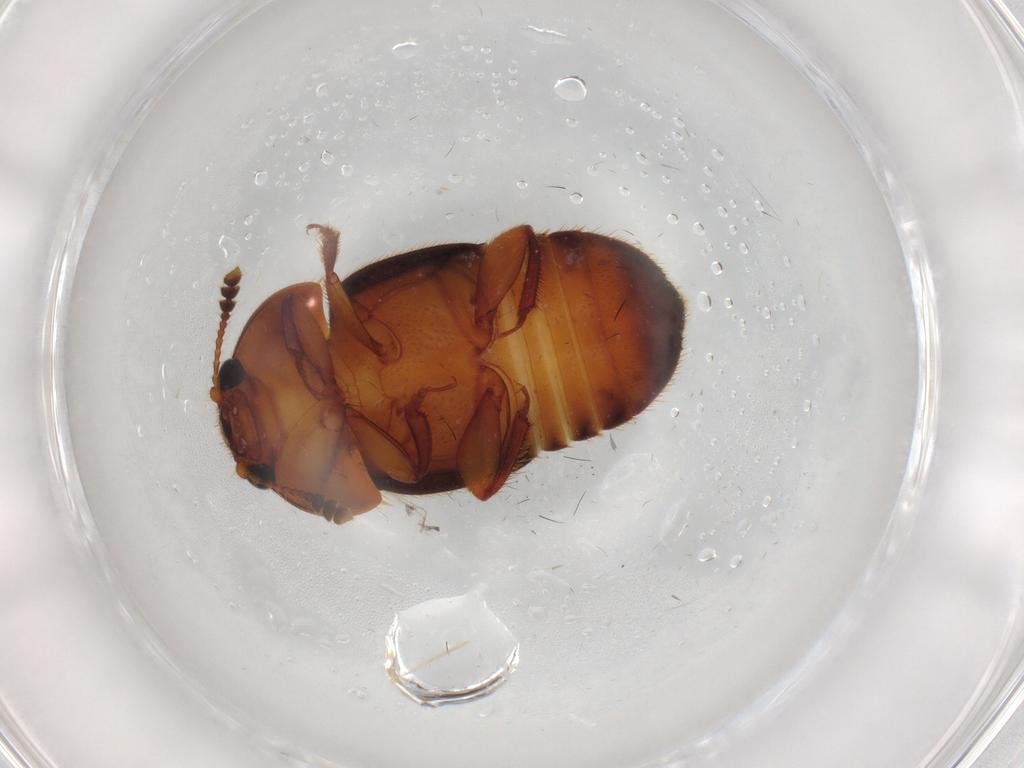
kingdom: Animalia
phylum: Arthropoda
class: Insecta
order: Coleoptera
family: Nitidulidae
